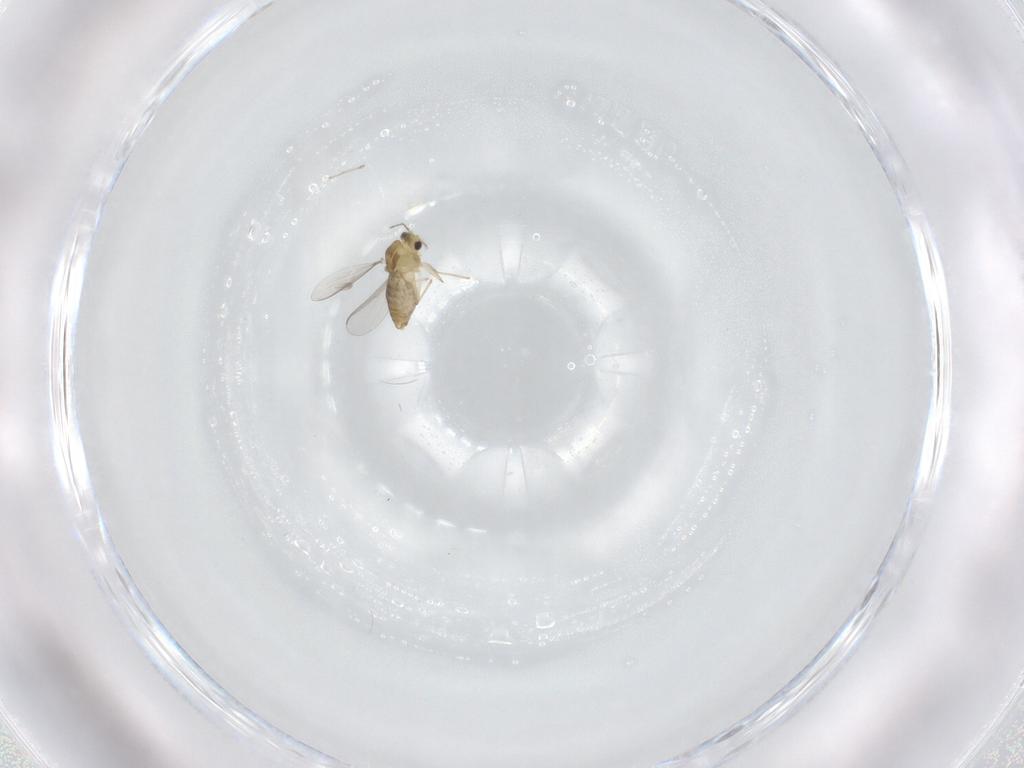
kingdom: Animalia
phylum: Arthropoda
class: Insecta
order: Diptera
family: Chironomidae
